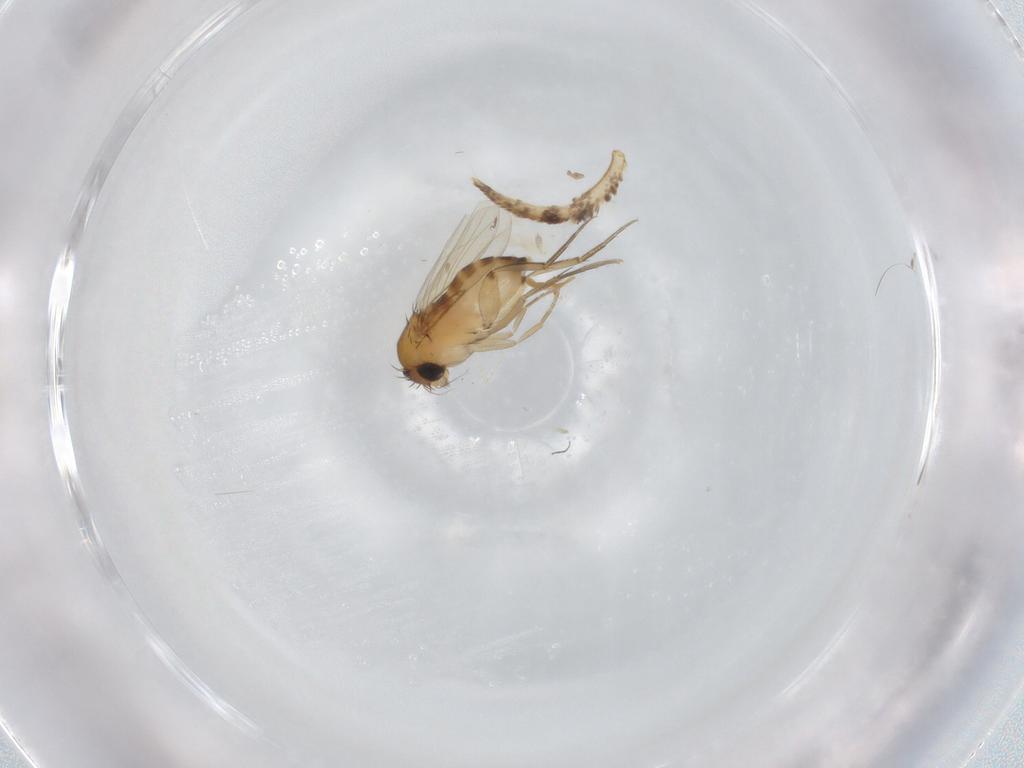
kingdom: Animalia
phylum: Arthropoda
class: Insecta
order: Diptera
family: Phoridae
